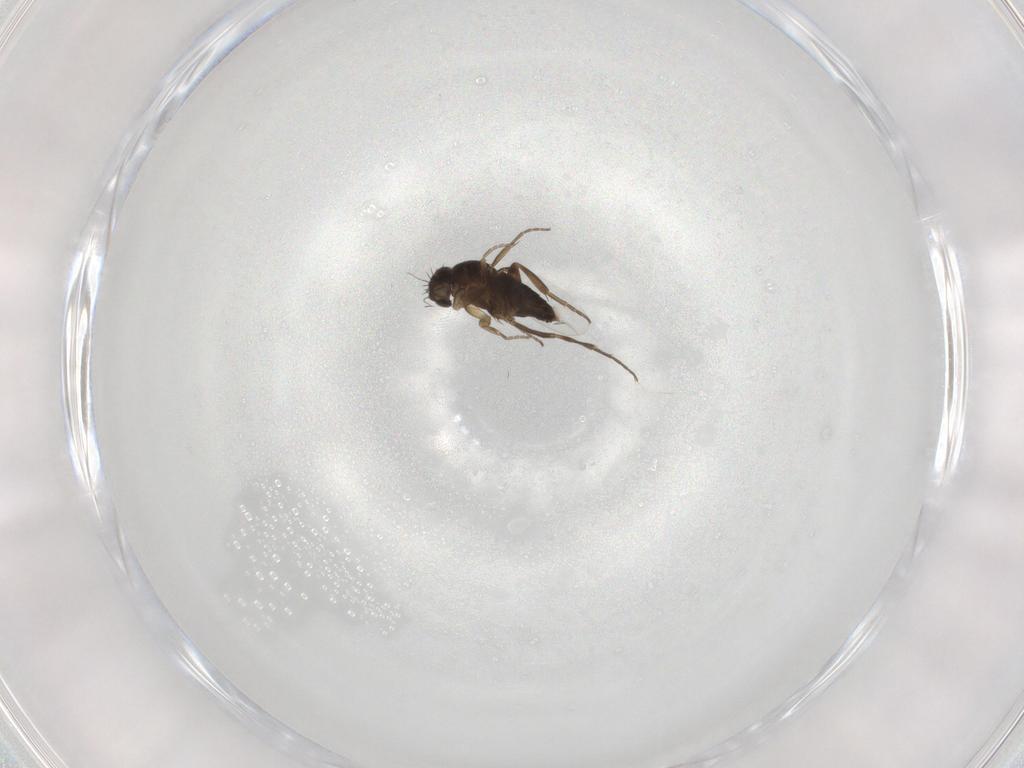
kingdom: Animalia
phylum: Arthropoda
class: Insecta
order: Diptera
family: Phoridae
